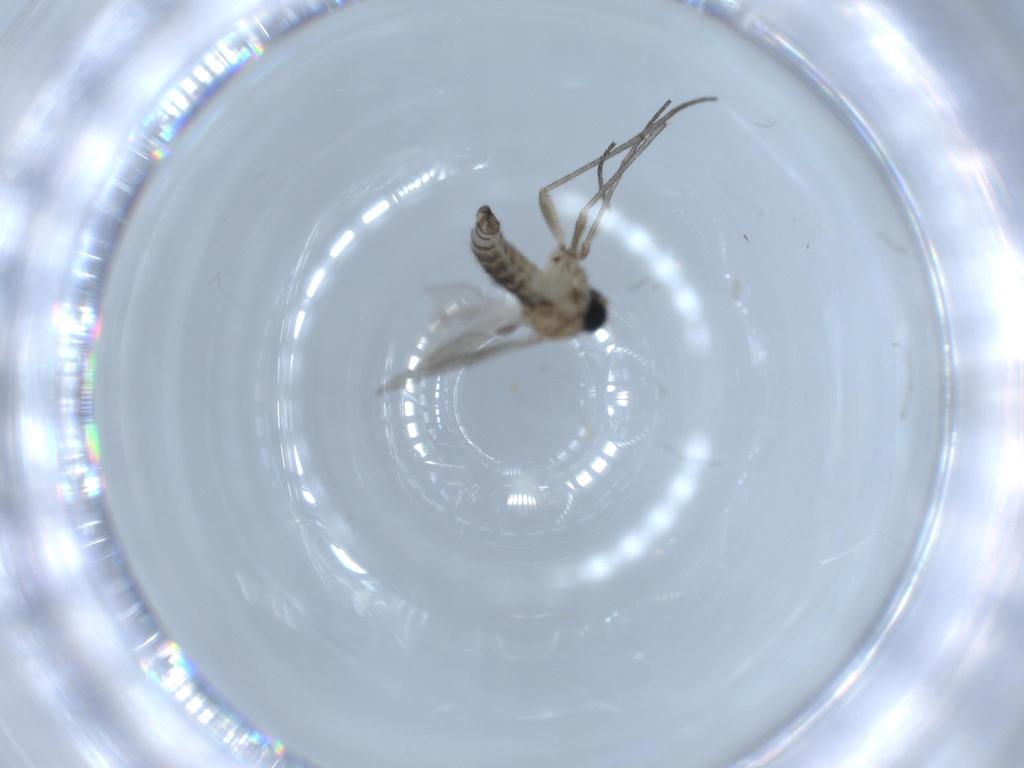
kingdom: Animalia
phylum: Arthropoda
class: Insecta
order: Diptera
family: Sciaridae
